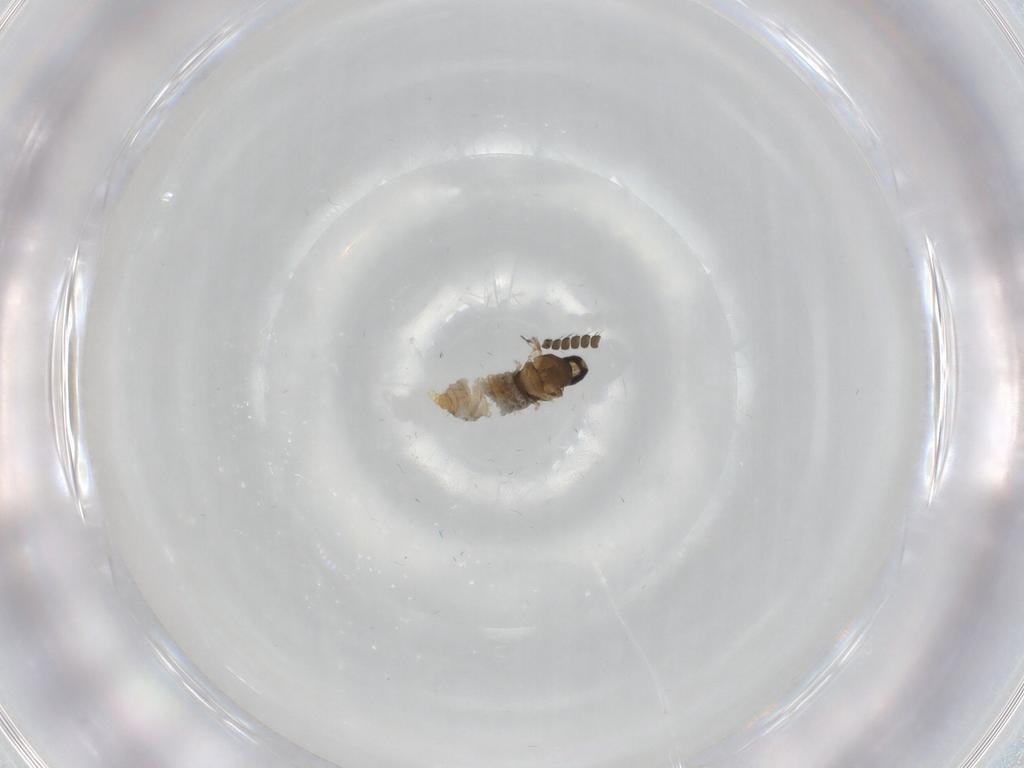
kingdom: Animalia
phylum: Arthropoda
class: Insecta
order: Diptera
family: Cecidomyiidae
